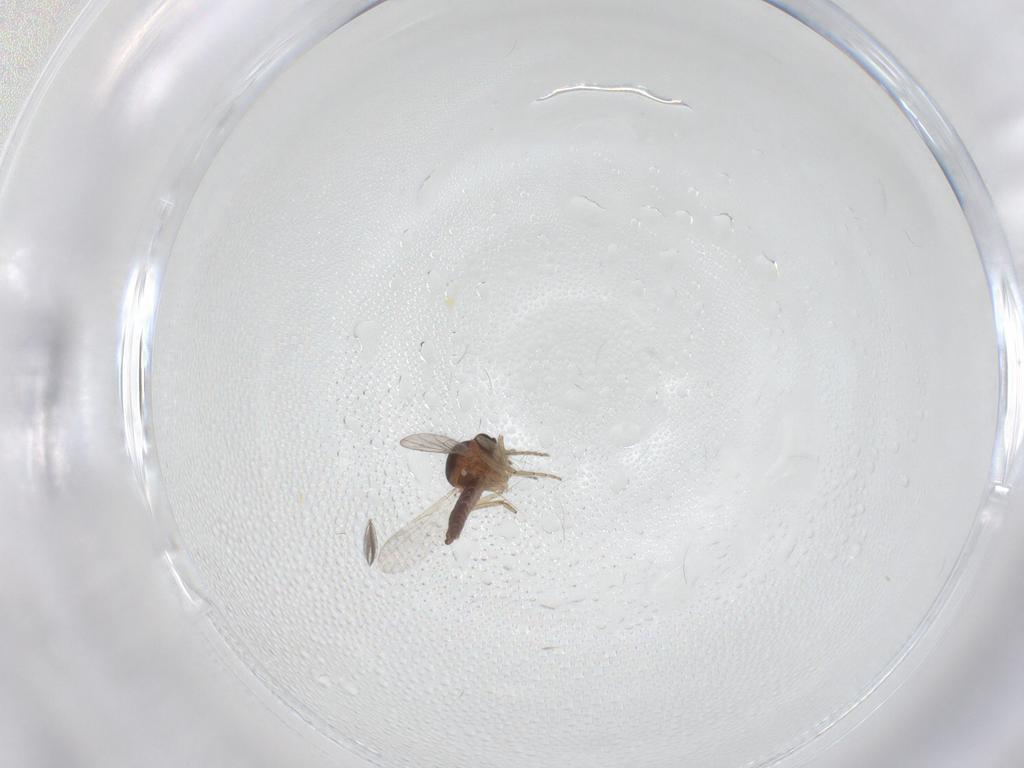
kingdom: Animalia
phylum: Arthropoda
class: Insecta
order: Diptera
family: Ceratopogonidae
